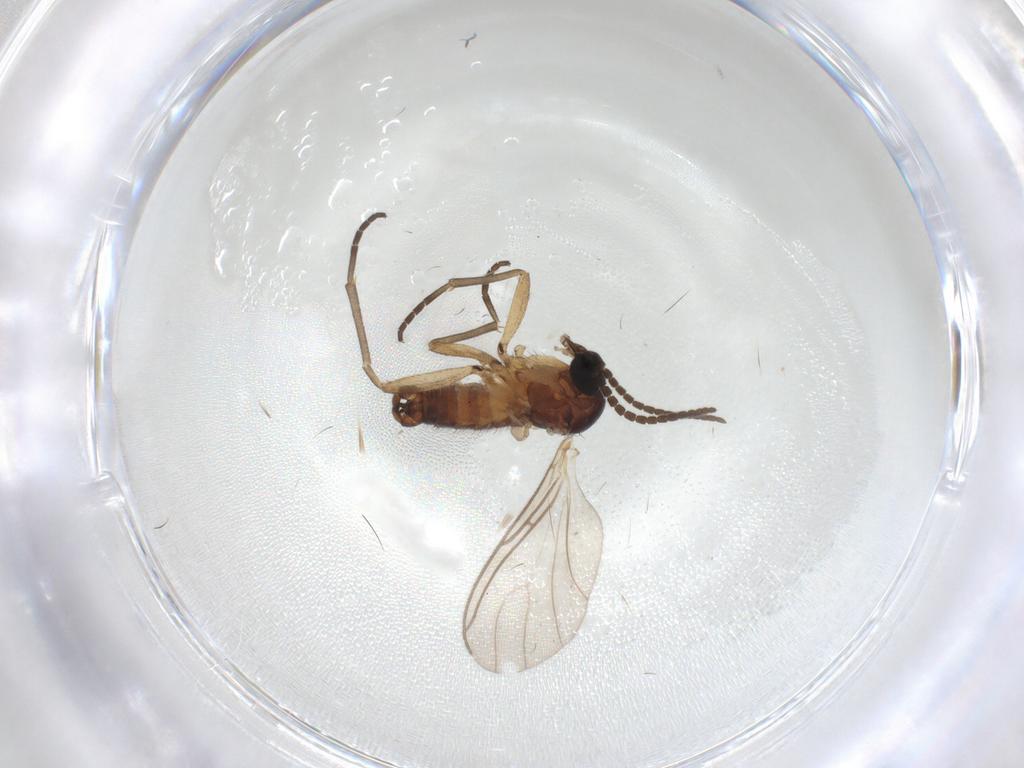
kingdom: Animalia
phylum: Arthropoda
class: Insecta
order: Diptera
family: Sciaridae
